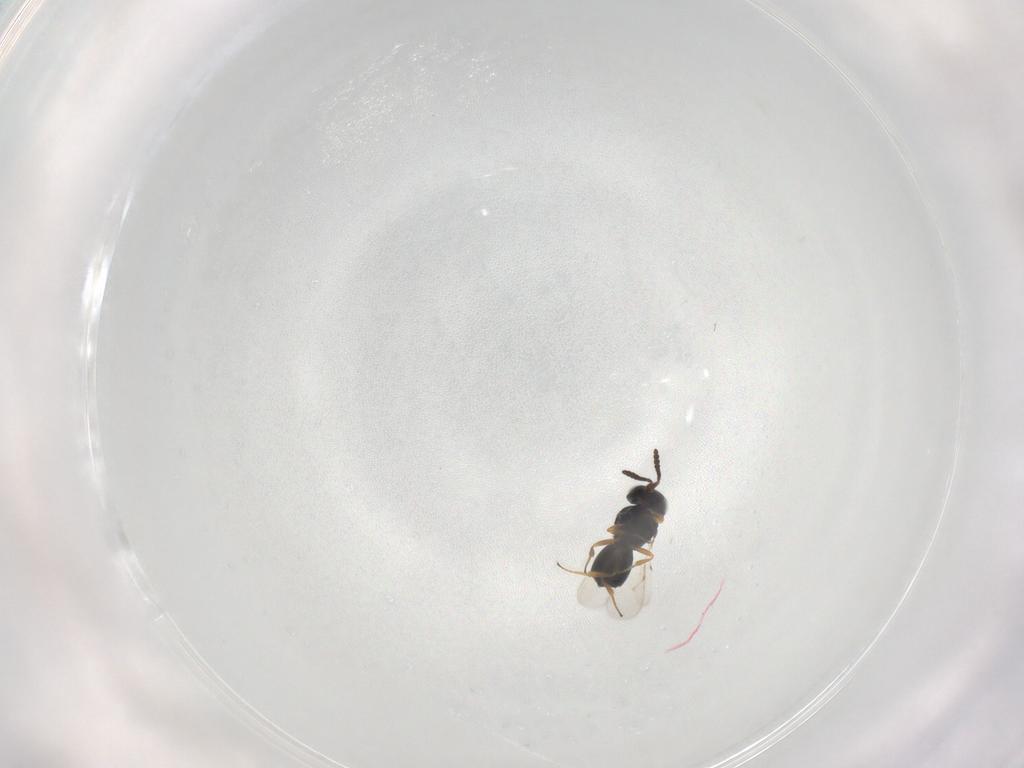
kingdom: Animalia
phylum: Arthropoda
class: Insecta
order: Hymenoptera
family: Scelionidae
